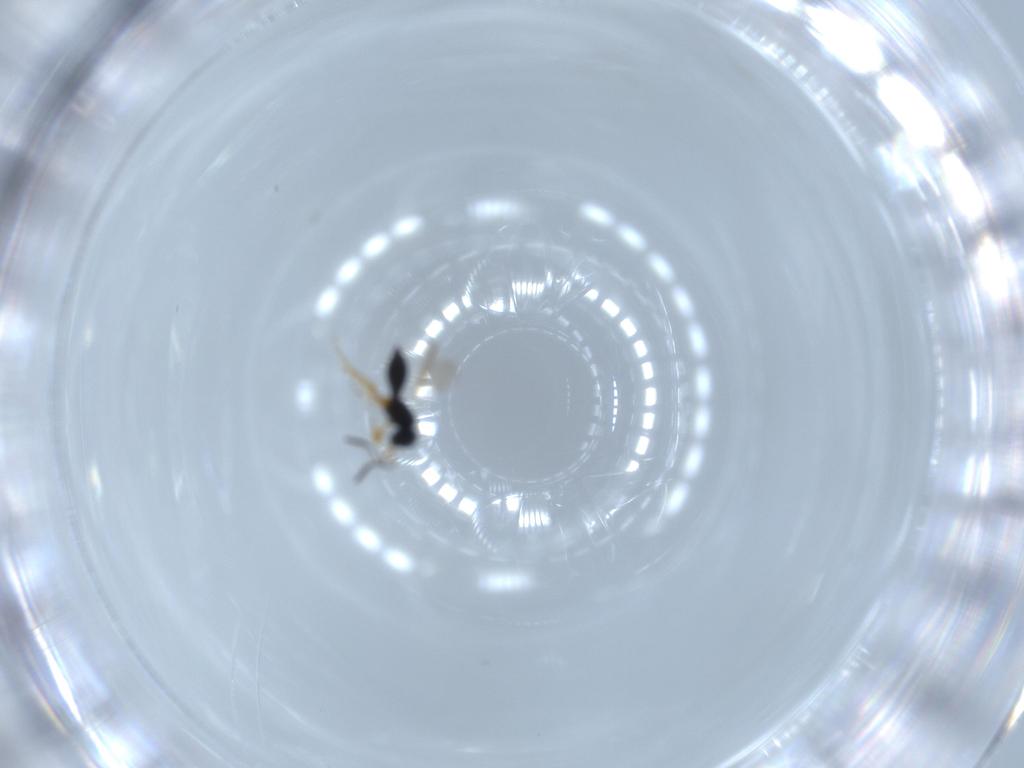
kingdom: Animalia
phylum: Arthropoda
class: Insecta
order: Hymenoptera
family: Scelionidae
